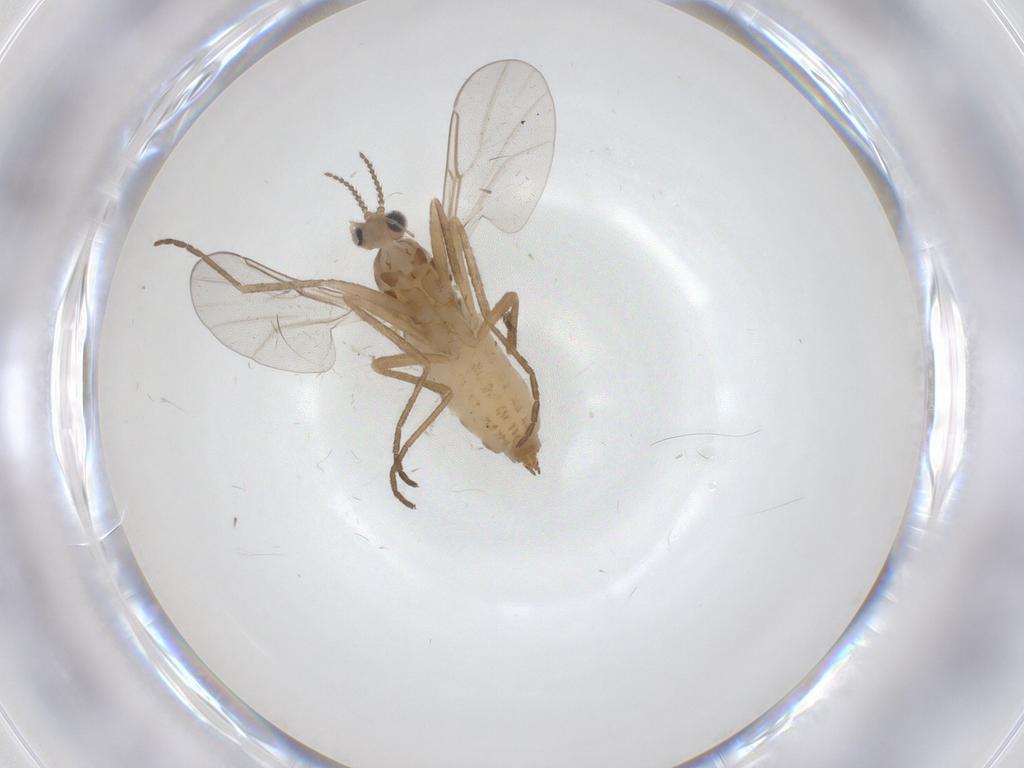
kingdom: Animalia
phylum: Arthropoda
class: Insecta
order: Diptera
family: Cecidomyiidae
